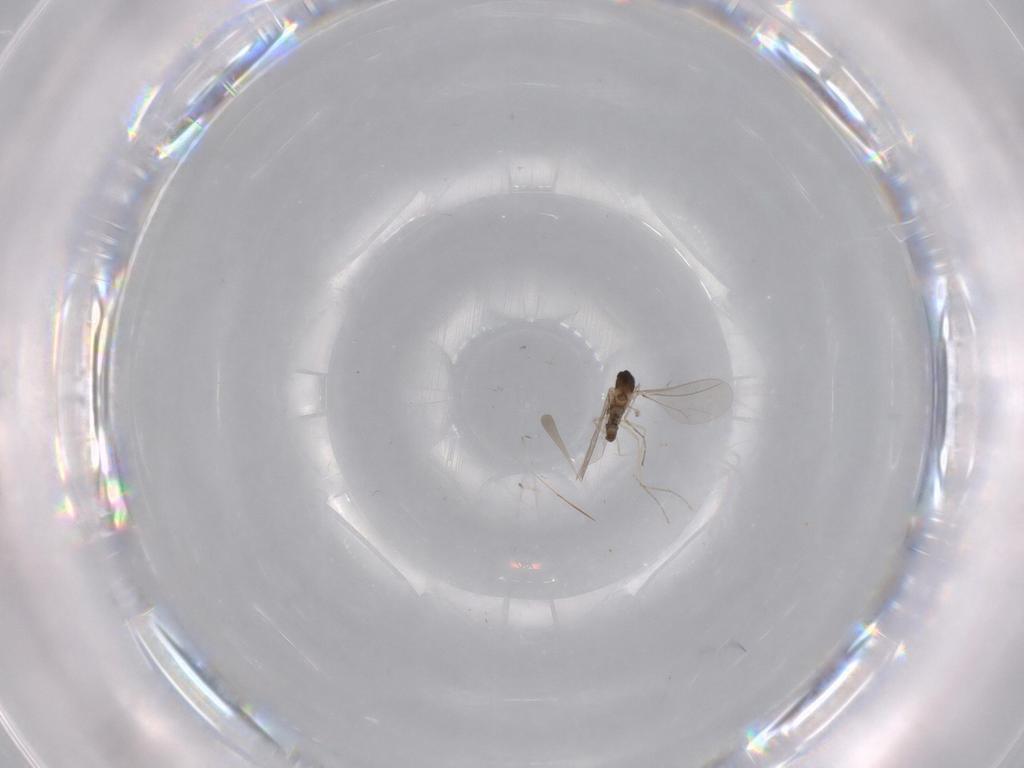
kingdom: Animalia
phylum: Arthropoda
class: Insecta
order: Diptera
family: Cecidomyiidae
